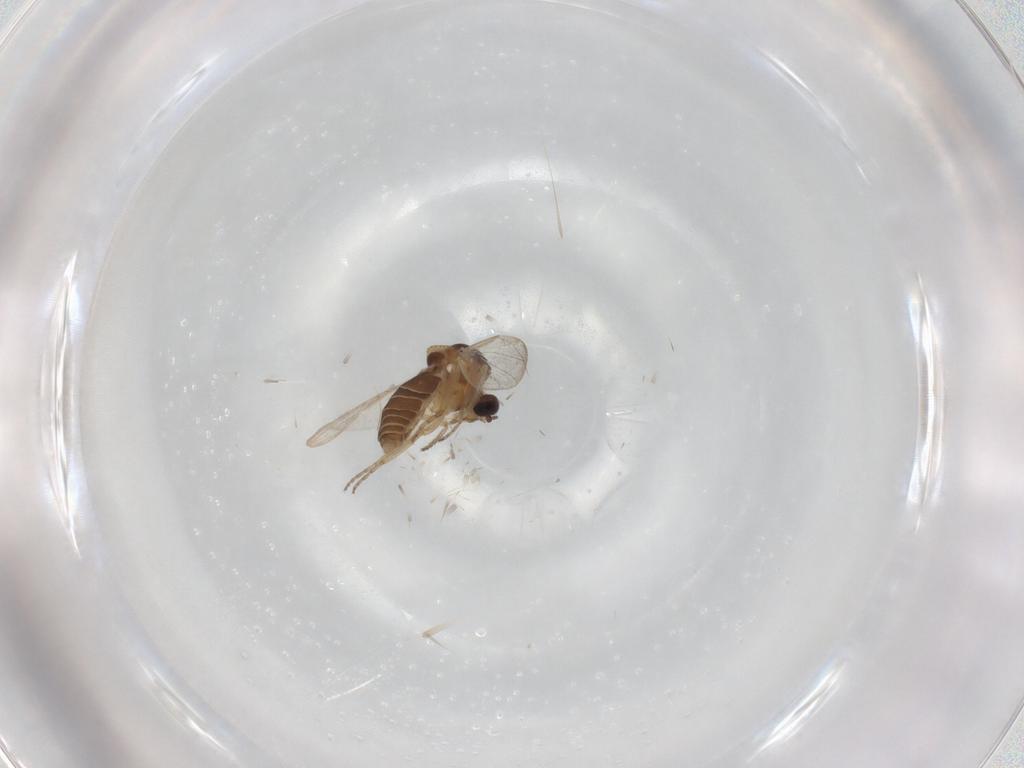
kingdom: Animalia
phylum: Arthropoda
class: Insecta
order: Diptera
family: Ceratopogonidae
